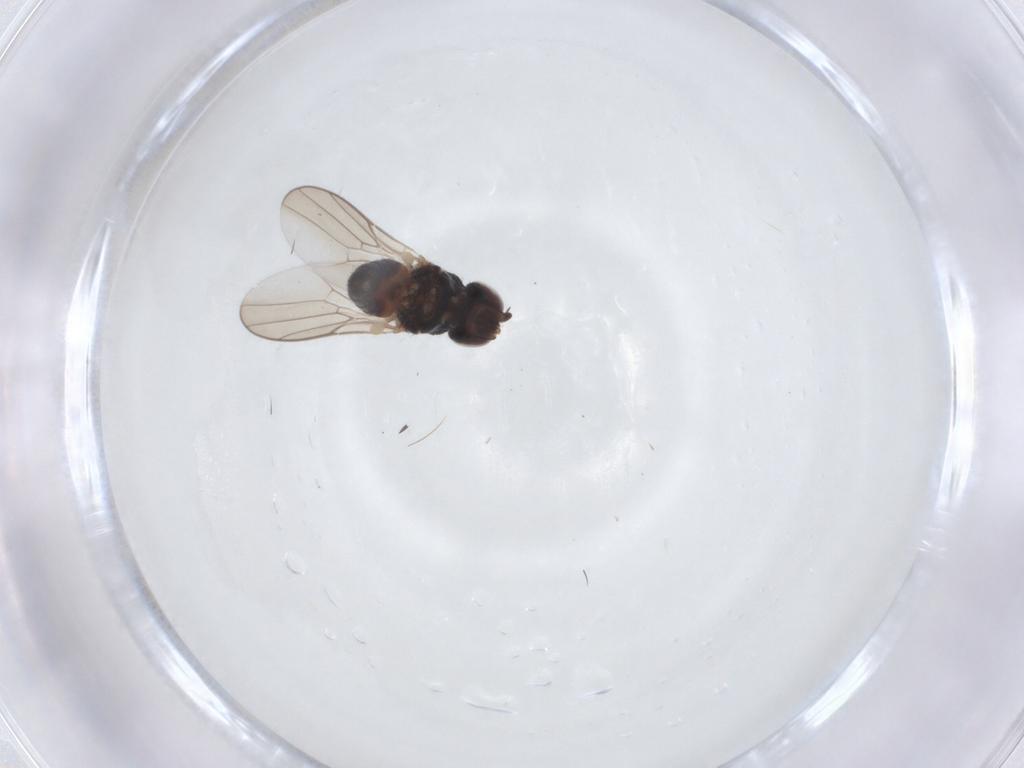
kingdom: Animalia
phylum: Arthropoda
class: Insecta
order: Diptera
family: Chloropidae
